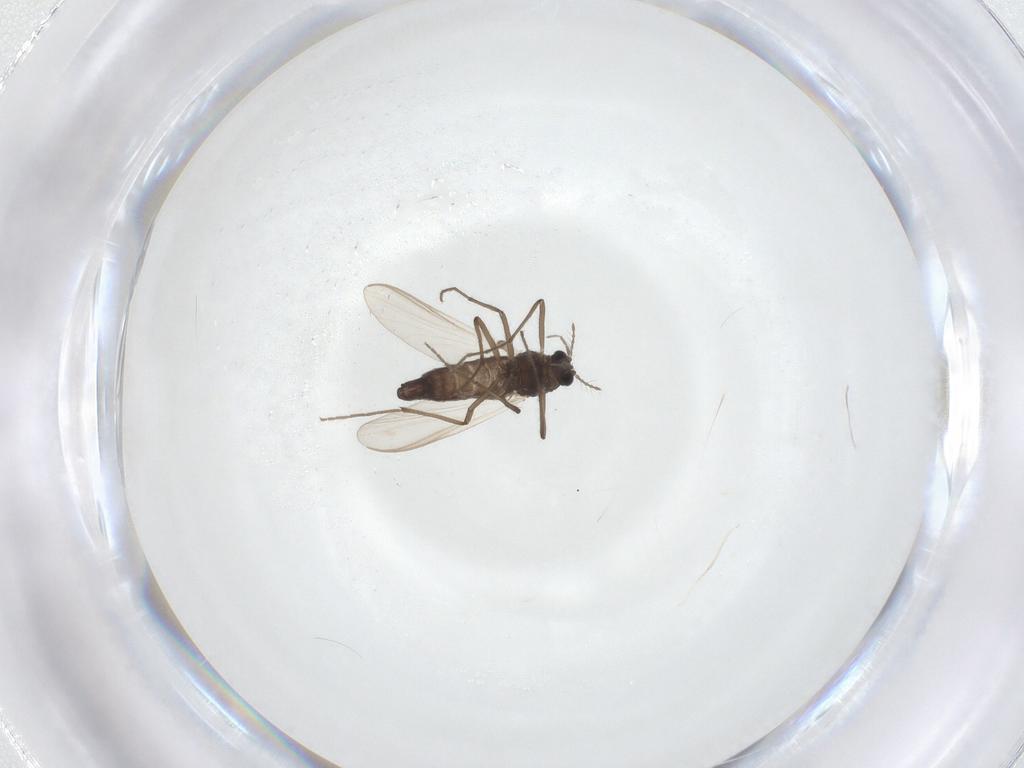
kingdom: Animalia
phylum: Arthropoda
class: Insecta
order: Diptera
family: Chironomidae
